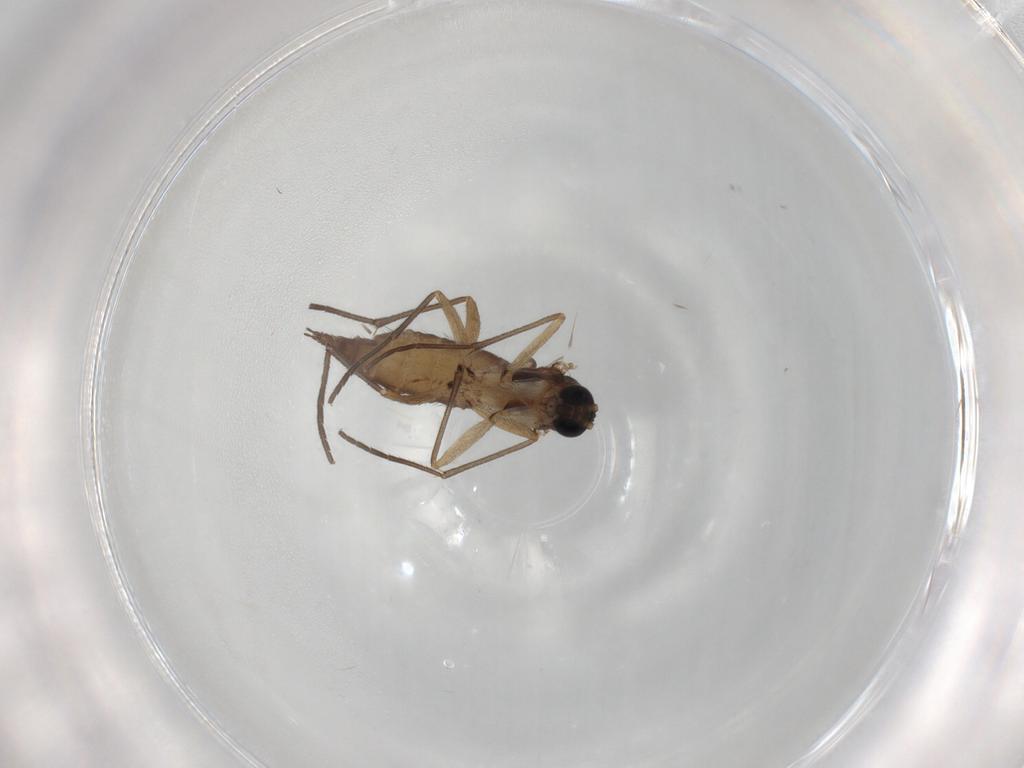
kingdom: Animalia
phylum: Arthropoda
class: Insecta
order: Diptera
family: Sciaridae
